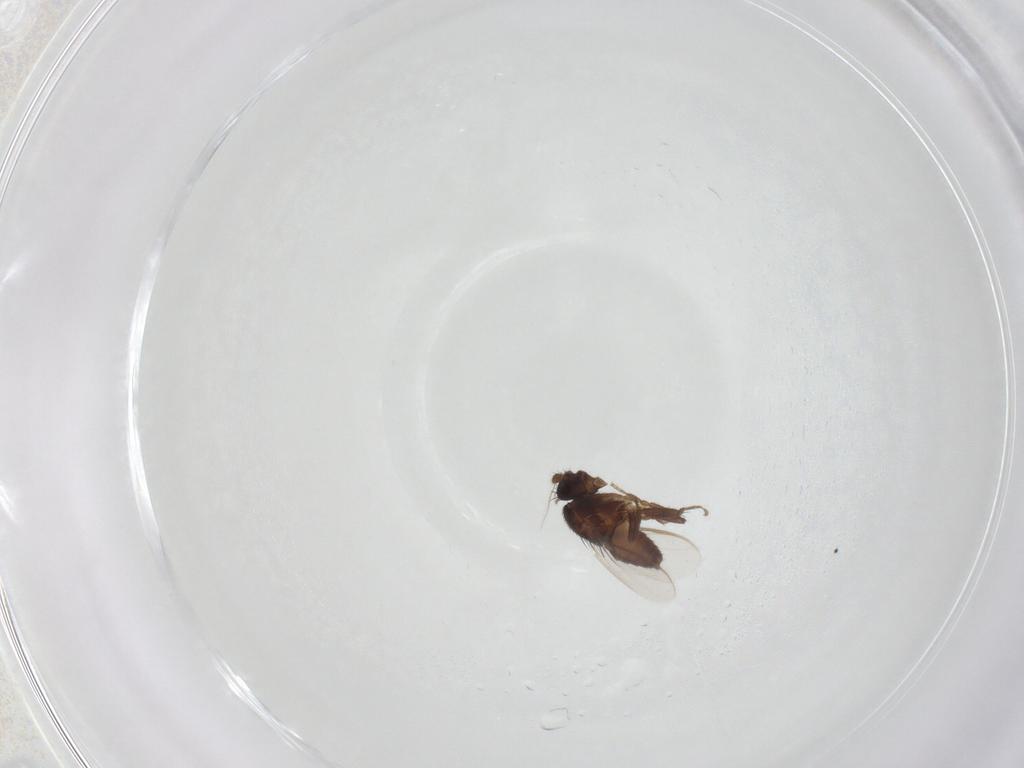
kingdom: Animalia
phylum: Arthropoda
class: Insecta
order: Diptera
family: Sphaeroceridae
